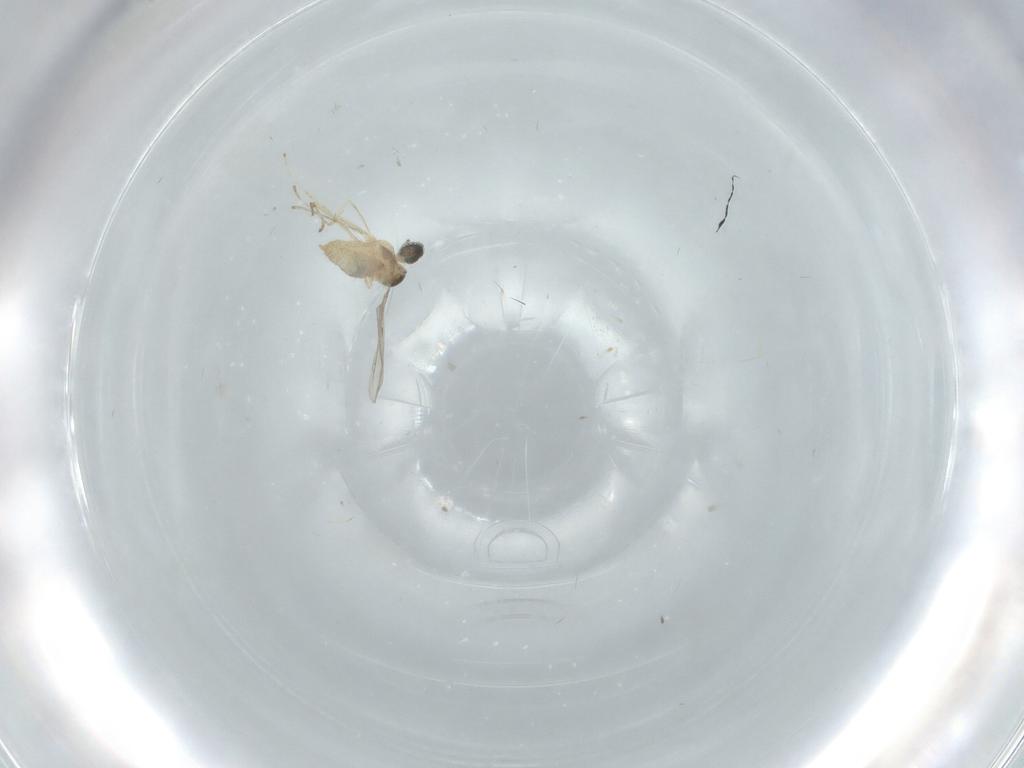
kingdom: Animalia
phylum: Arthropoda
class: Insecta
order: Diptera
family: Cecidomyiidae
